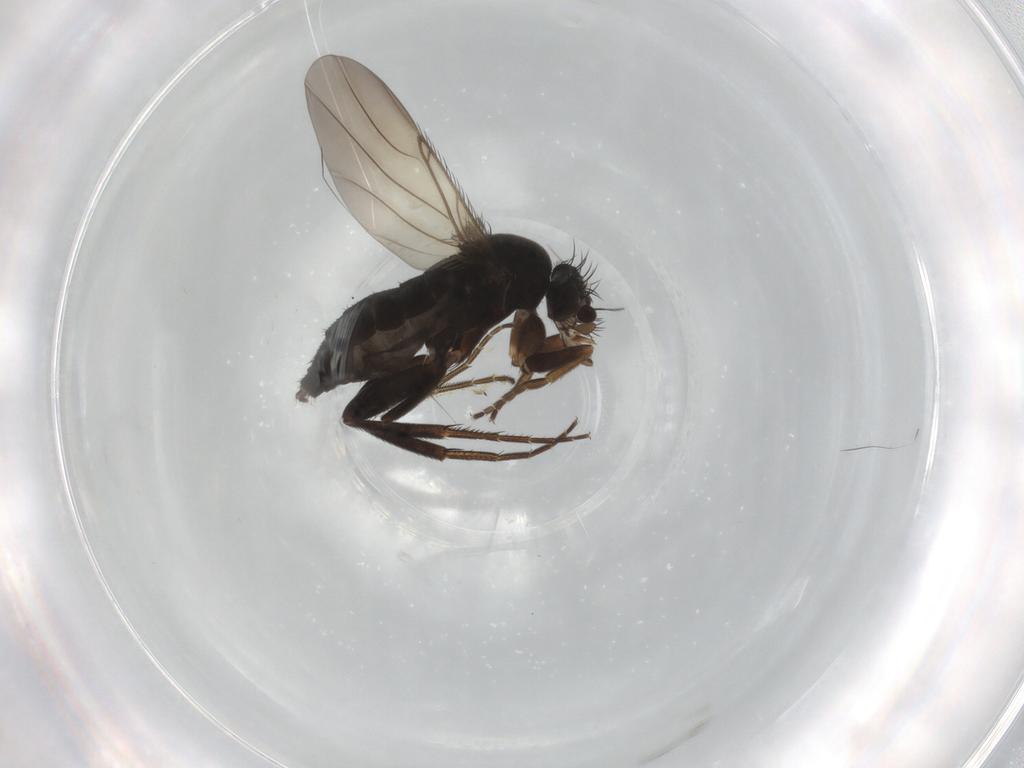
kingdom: Animalia
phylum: Arthropoda
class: Insecta
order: Diptera
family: Phoridae
